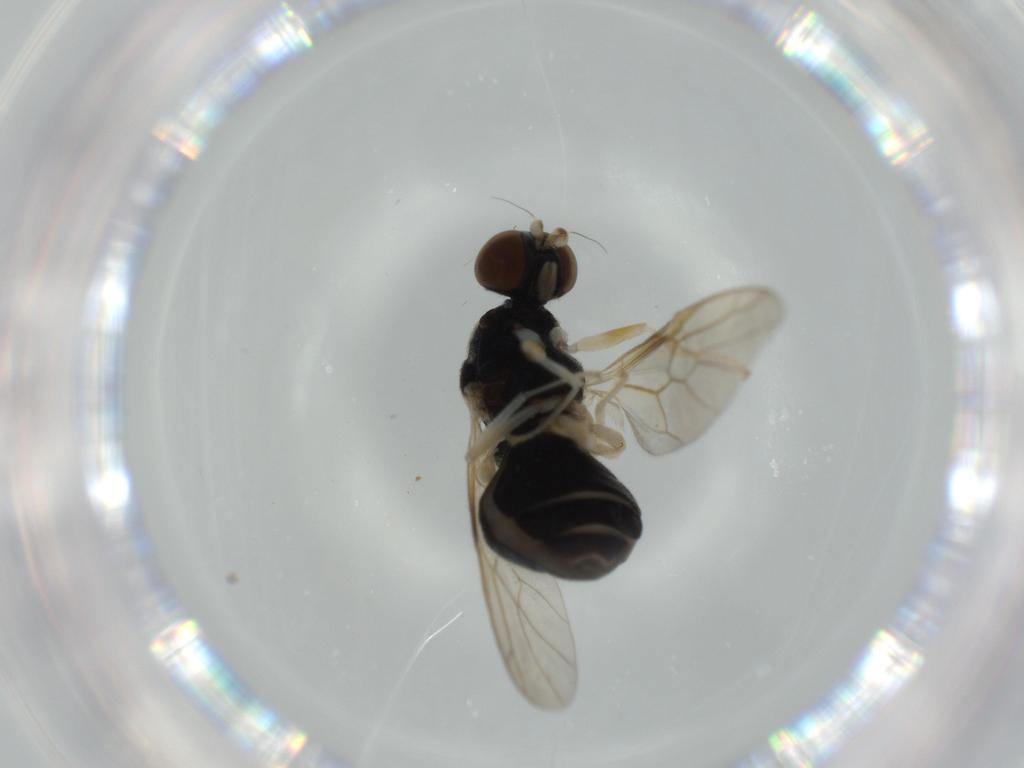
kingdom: Animalia
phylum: Arthropoda
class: Insecta
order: Diptera
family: Stratiomyidae
